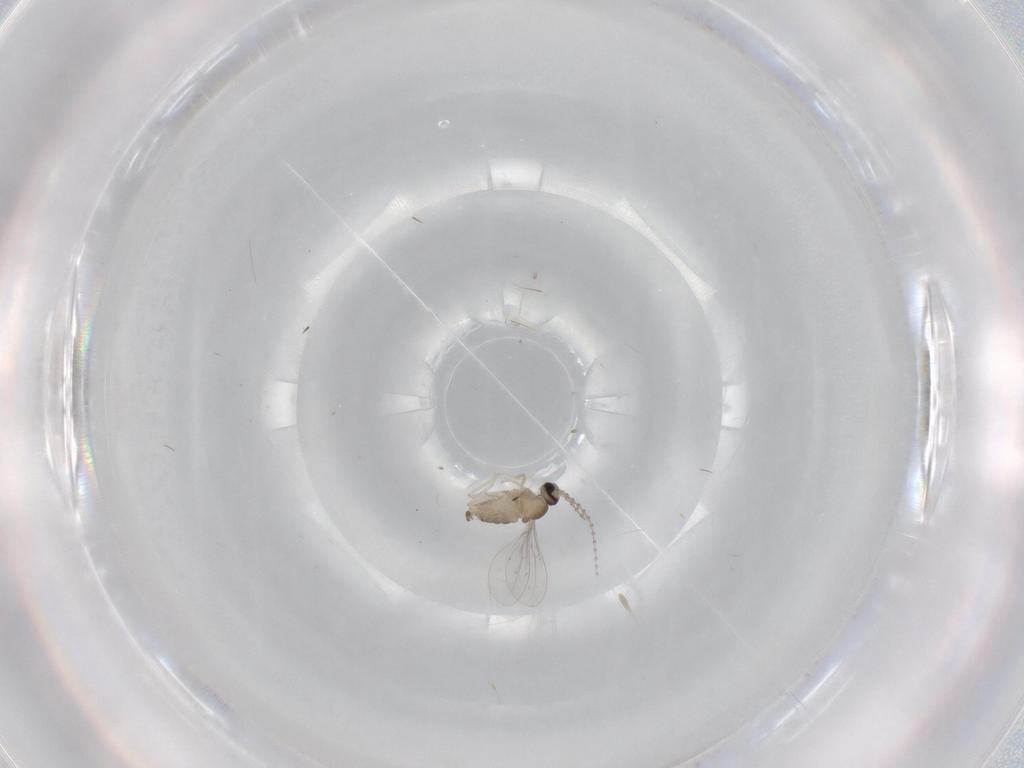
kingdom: Animalia
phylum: Arthropoda
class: Insecta
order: Diptera
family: Cecidomyiidae
